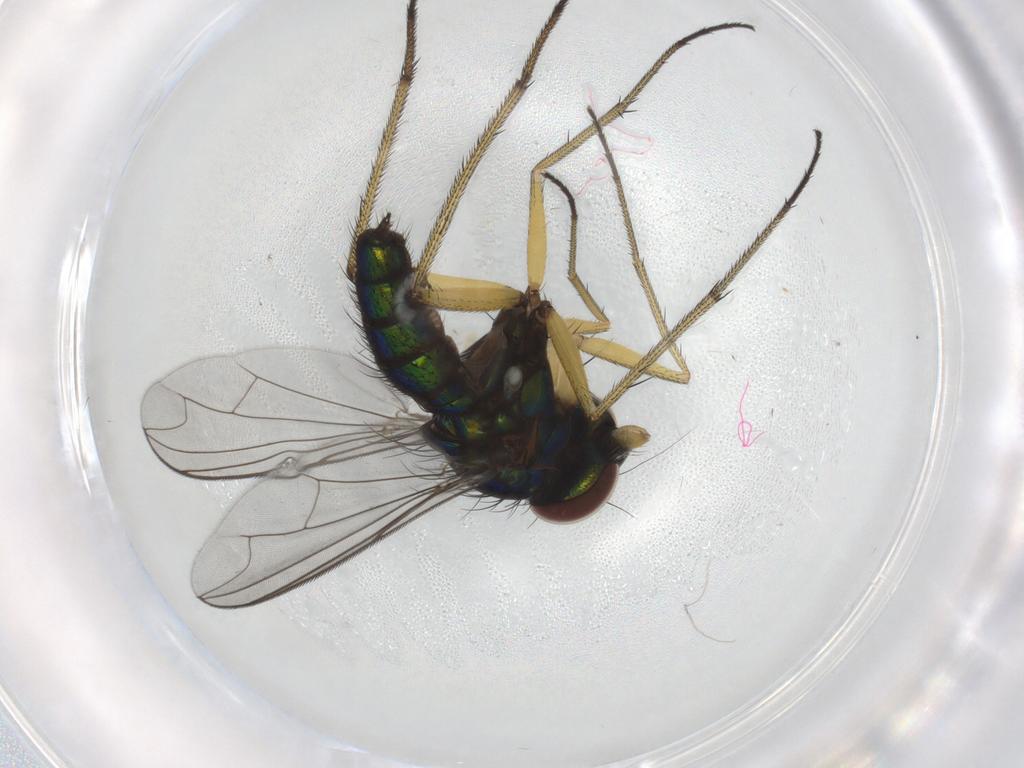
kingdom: Animalia
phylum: Arthropoda
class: Insecta
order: Diptera
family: Dolichopodidae
